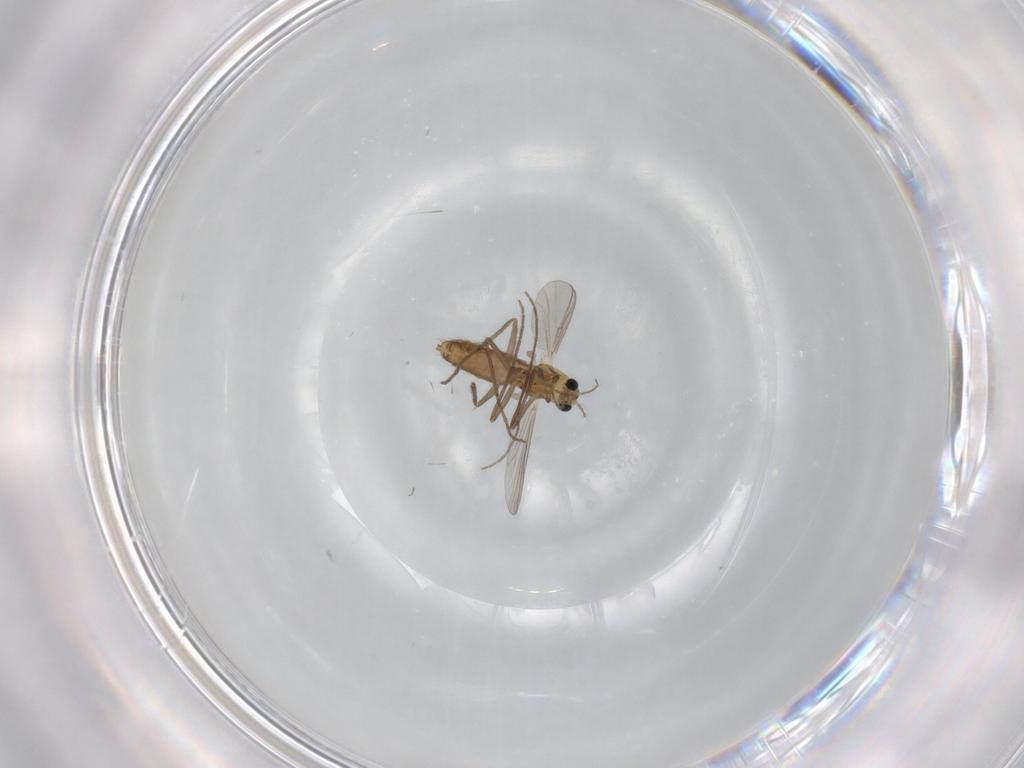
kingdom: Animalia
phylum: Arthropoda
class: Insecta
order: Diptera
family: Chironomidae
